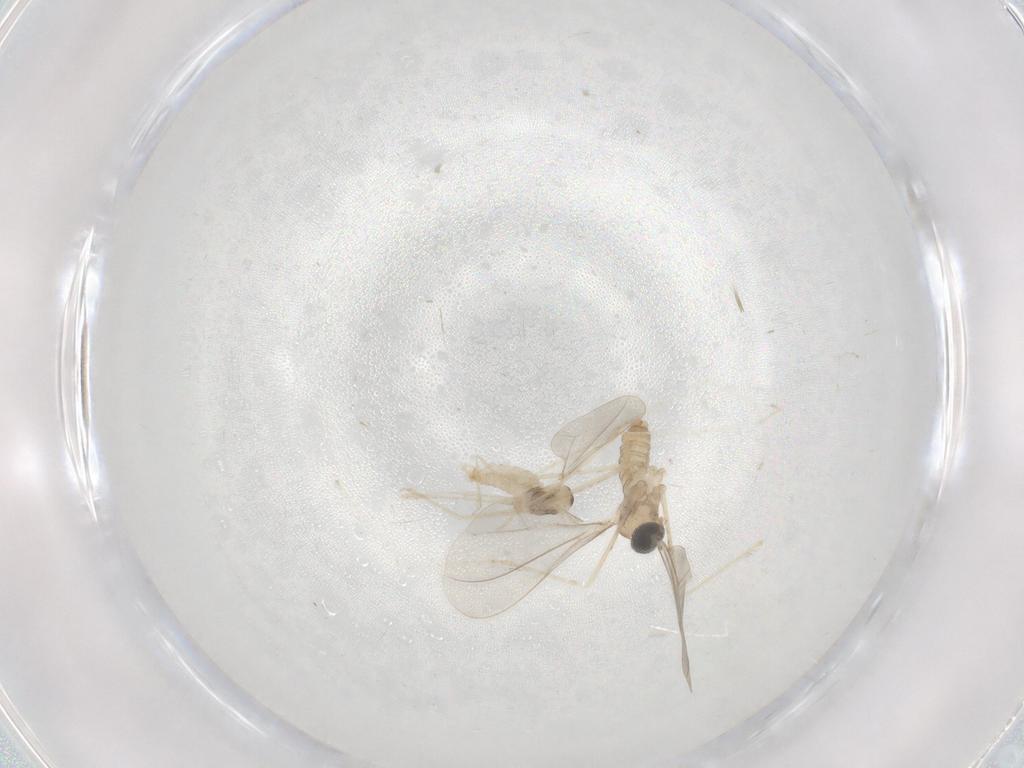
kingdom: Animalia
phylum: Arthropoda
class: Insecta
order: Diptera
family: Cecidomyiidae
